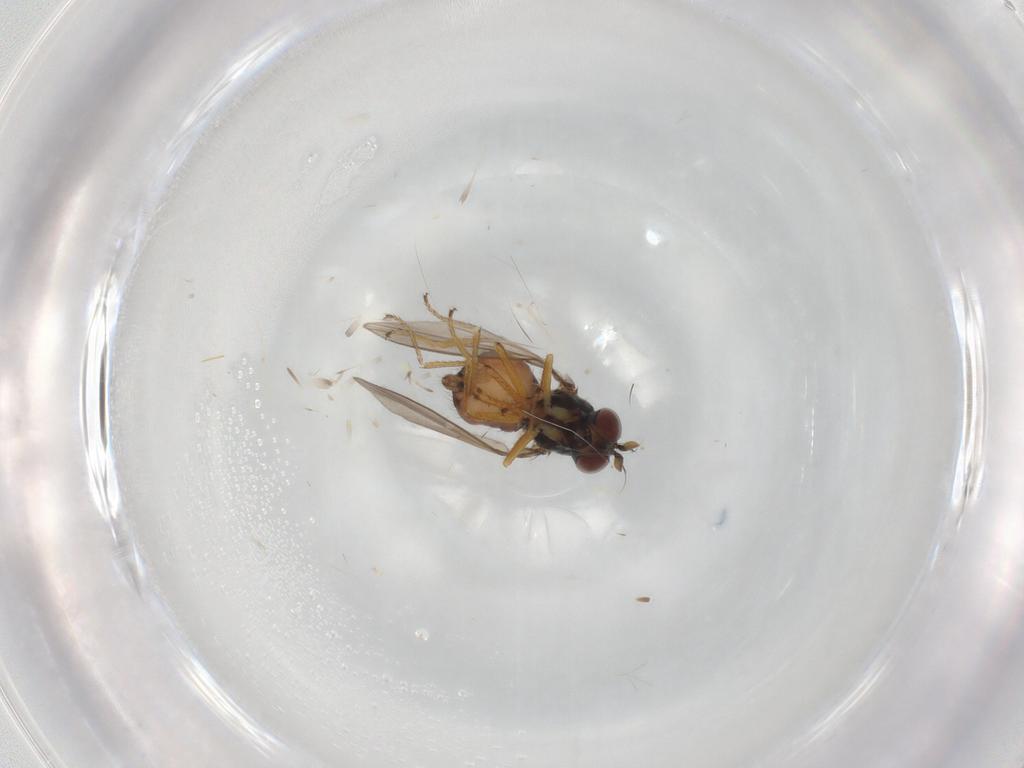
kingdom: Animalia
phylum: Arthropoda
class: Insecta
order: Diptera
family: Ephydridae
